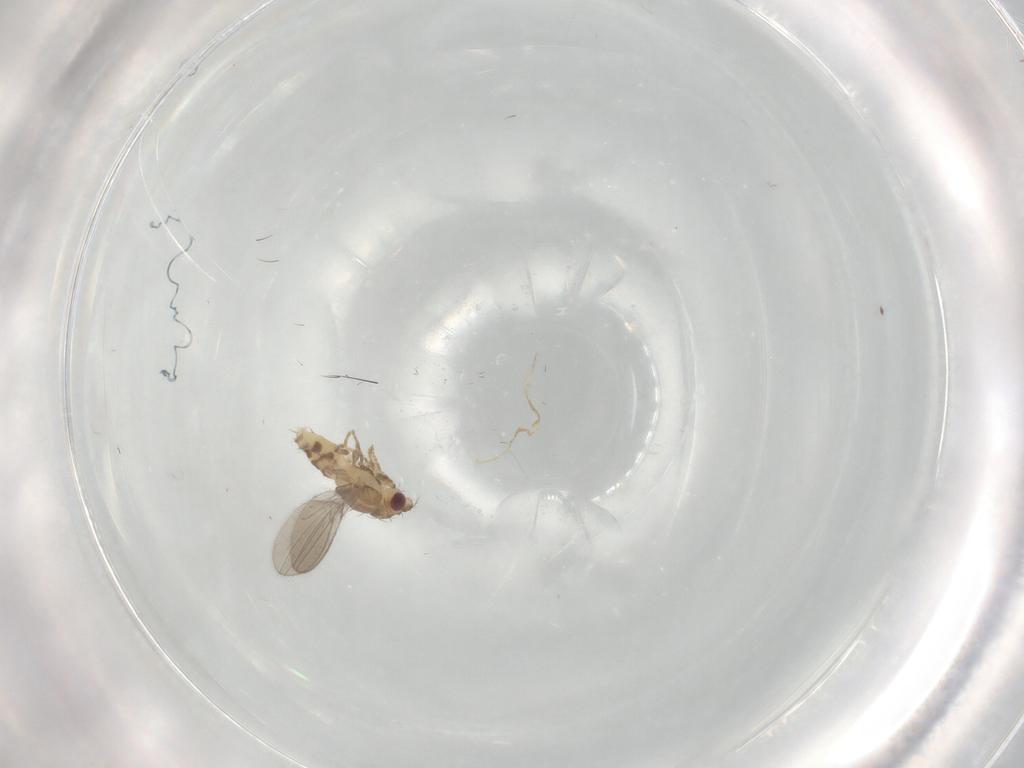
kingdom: Animalia
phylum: Arthropoda
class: Insecta
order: Diptera
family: Asteiidae
